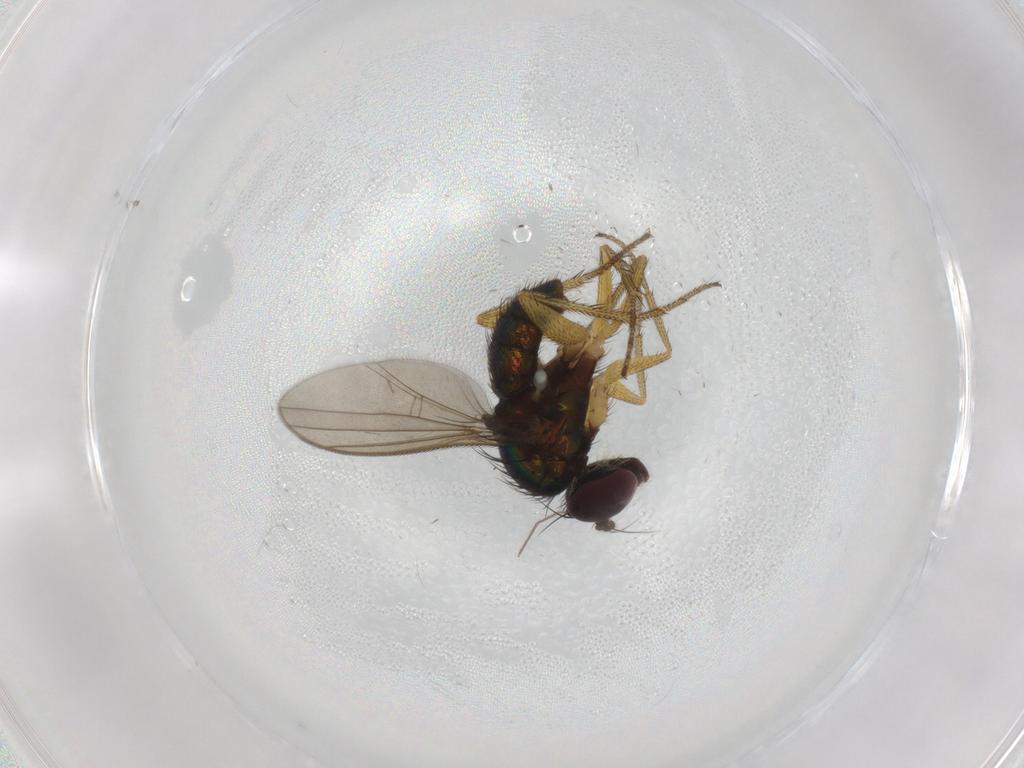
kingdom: Animalia
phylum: Arthropoda
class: Insecta
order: Diptera
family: Dolichopodidae
